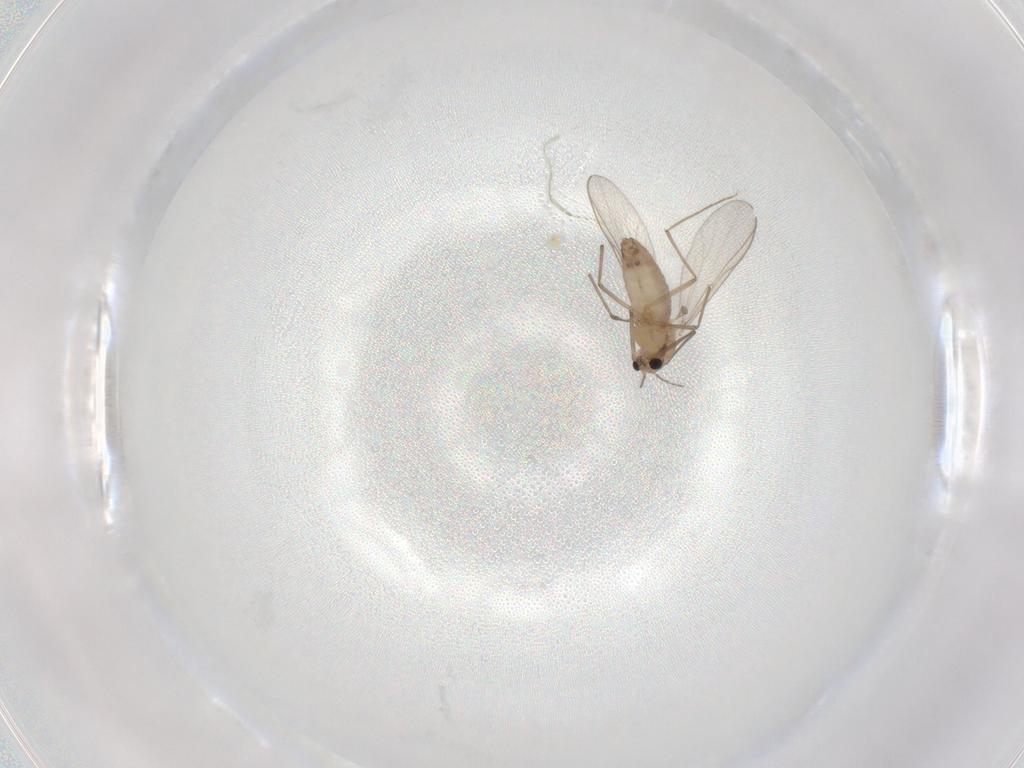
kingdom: Animalia
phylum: Arthropoda
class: Insecta
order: Diptera
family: Chironomidae
